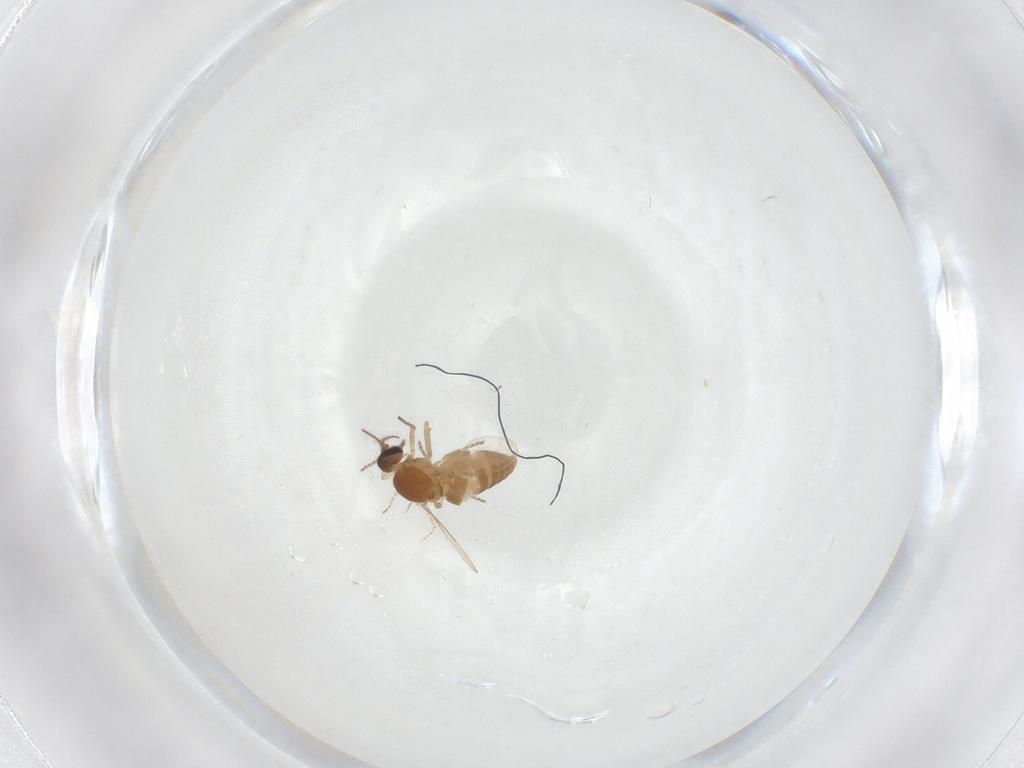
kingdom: Animalia
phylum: Arthropoda
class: Insecta
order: Diptera
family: Ceratopogonidae
